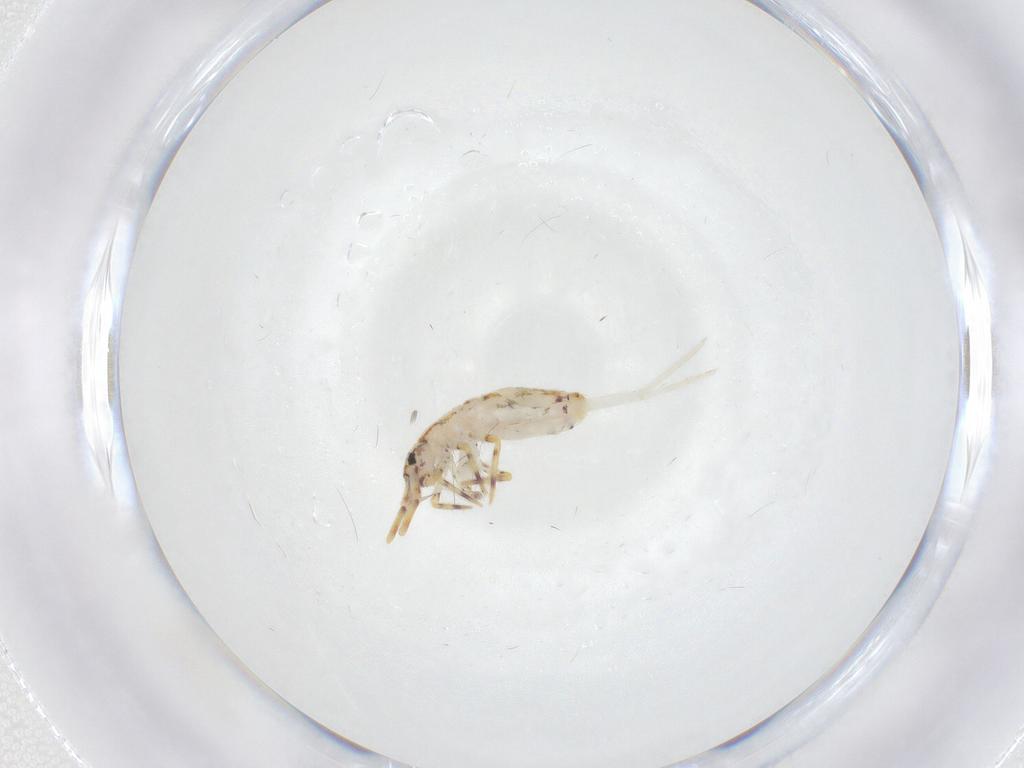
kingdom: Animalia
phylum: Arthropoda
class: Collembola
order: Entomobryomorpha
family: Entomobryidae
